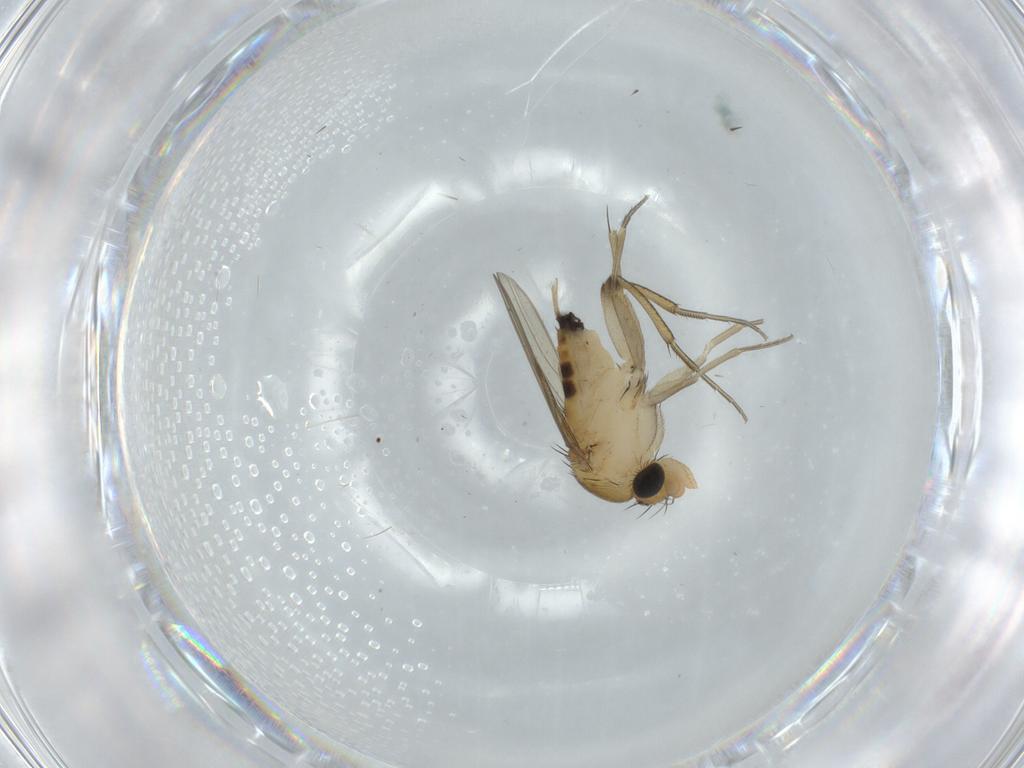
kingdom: Animalia
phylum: Arthropoda
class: Insecta
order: Diptera
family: Phoridae
